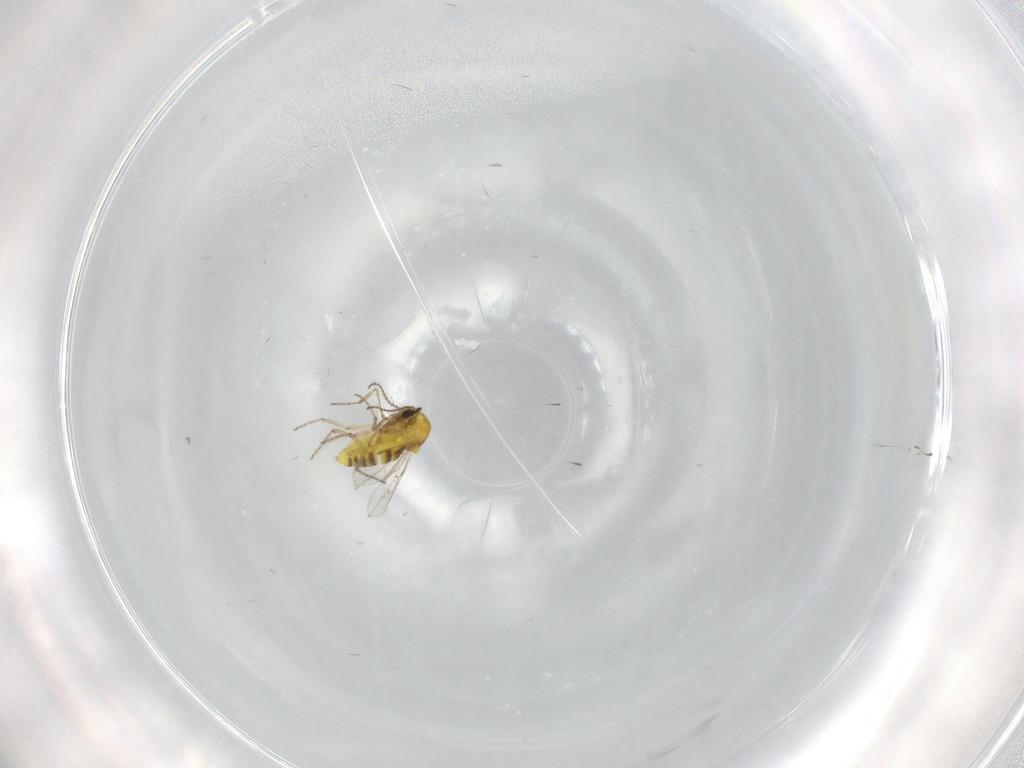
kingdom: Animalia
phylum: Arthropoda
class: Insecta
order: Diptera
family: Ceratopogonidae
